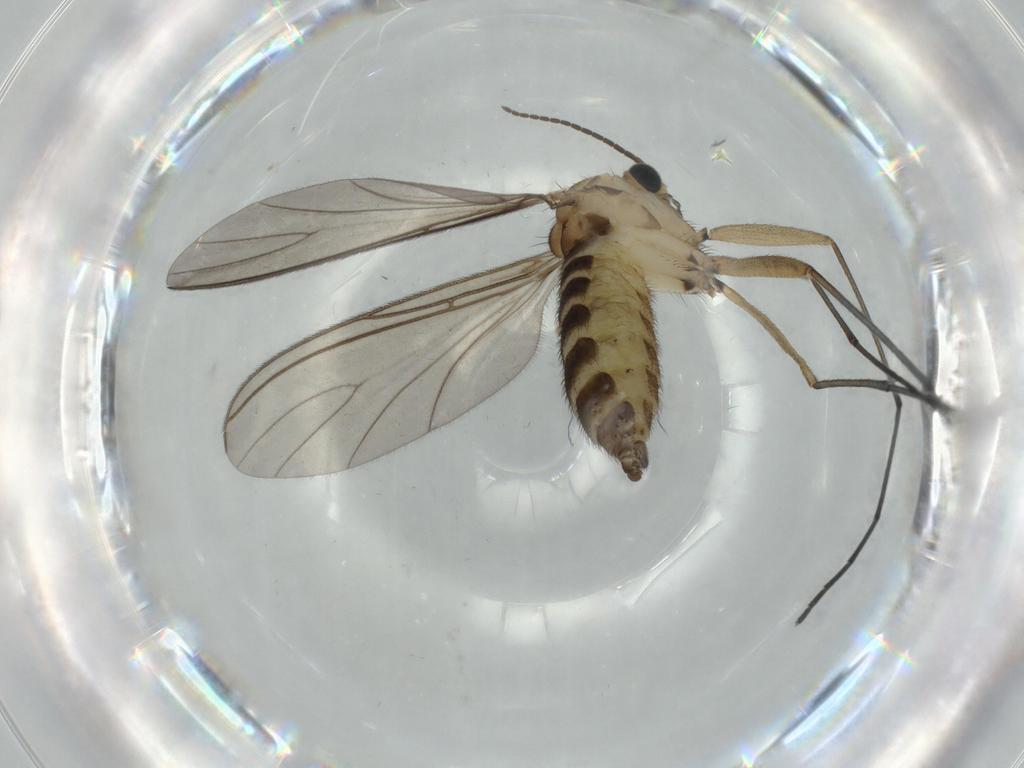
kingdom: Animalia
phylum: Arthropoda
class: Insecta
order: Diptera
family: Sciaridae
